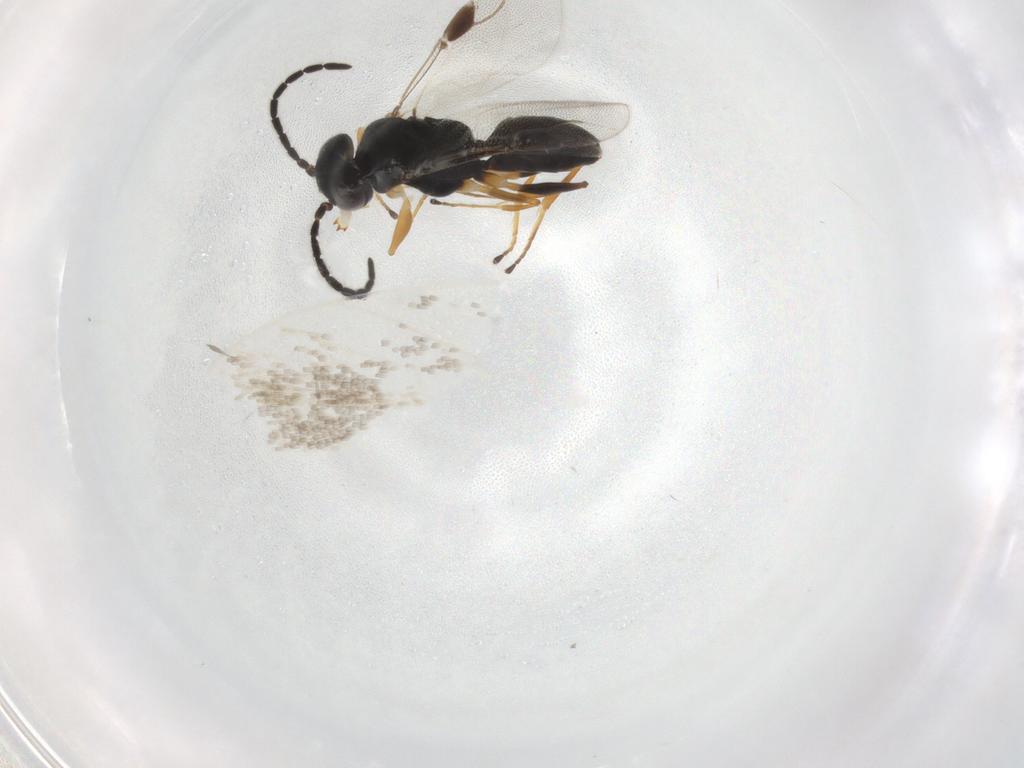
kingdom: Animalia
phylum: Arthropoda
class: Insecta
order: Hymenoptera
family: Dryinidae
